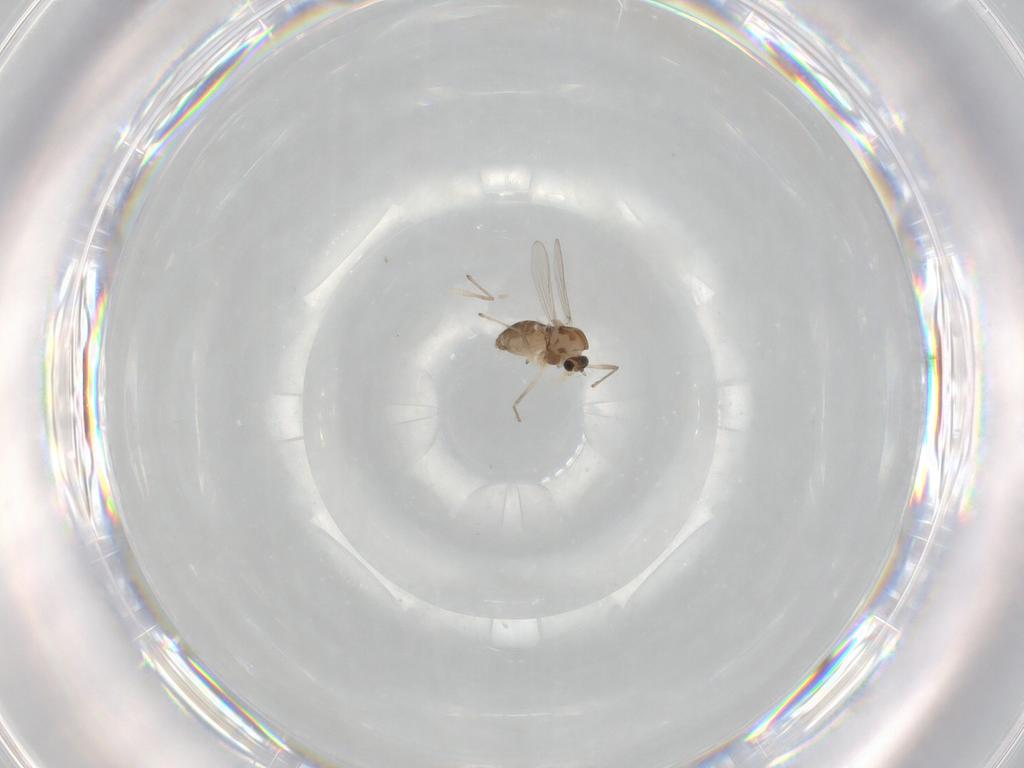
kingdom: Animalia
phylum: Arthropoda
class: Insecta
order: Diptera
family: Chironomidae
